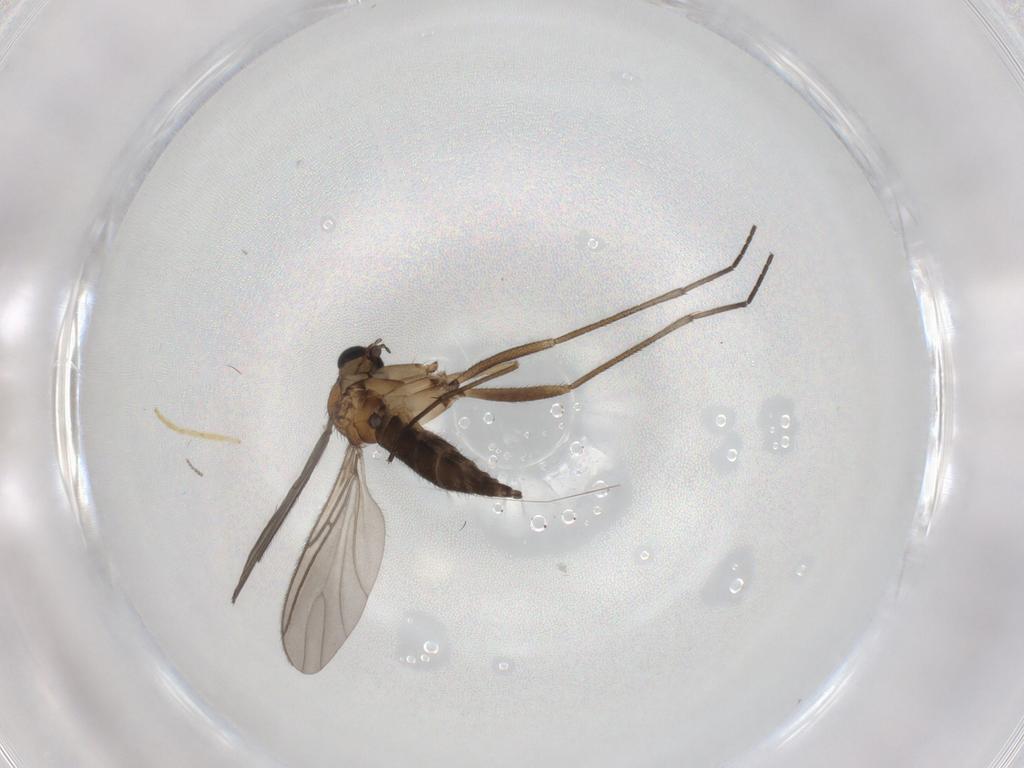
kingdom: Animalia
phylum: Arthropoda
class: Insecta
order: Diptera
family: Sciaridae
